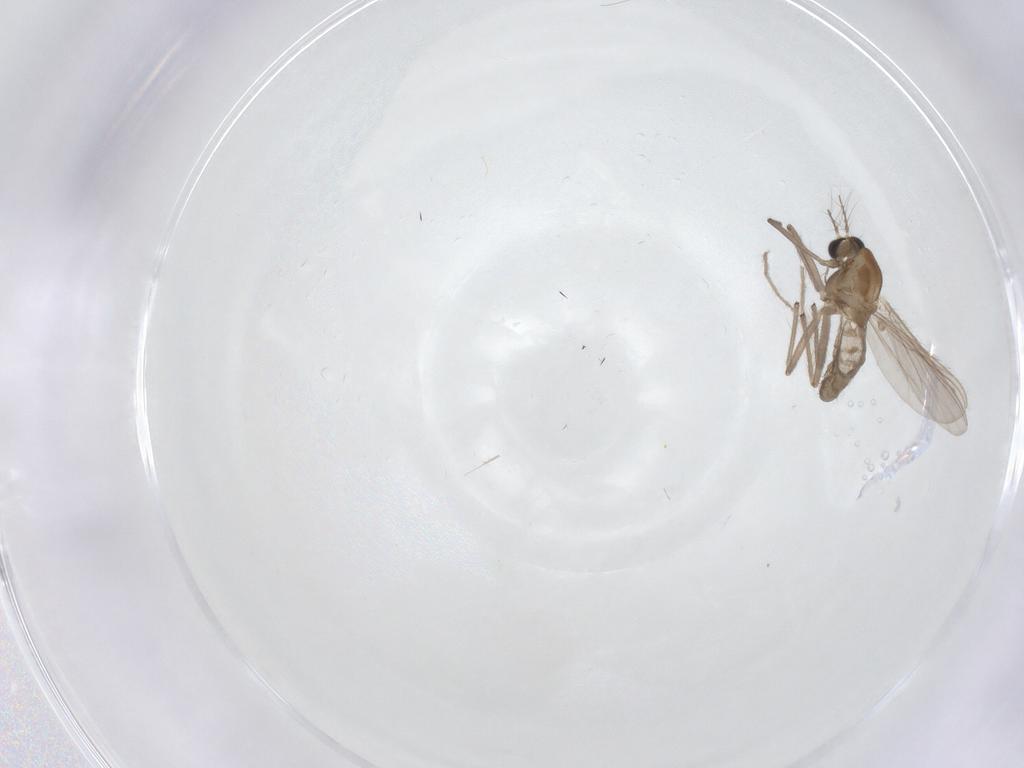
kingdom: Animalia
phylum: Arthropoda
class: Insecta
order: Diptera
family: Chironomidae
